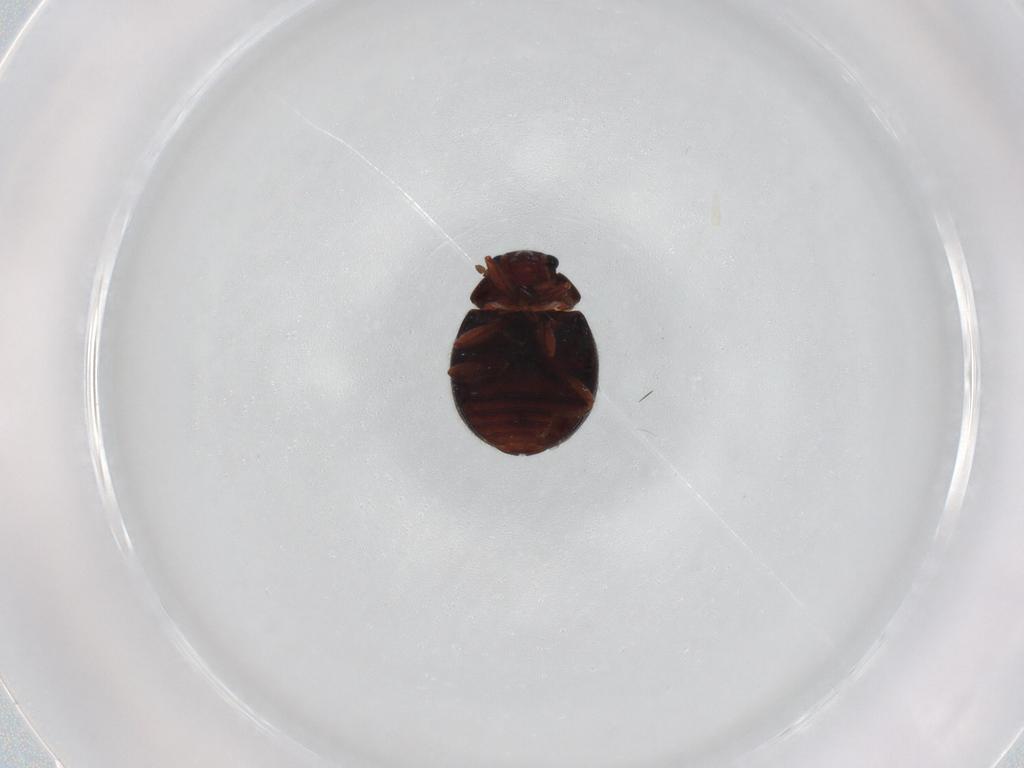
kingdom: Animalia
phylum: Arthropoda
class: Insecta
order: Coleoptera
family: Sphindidae
